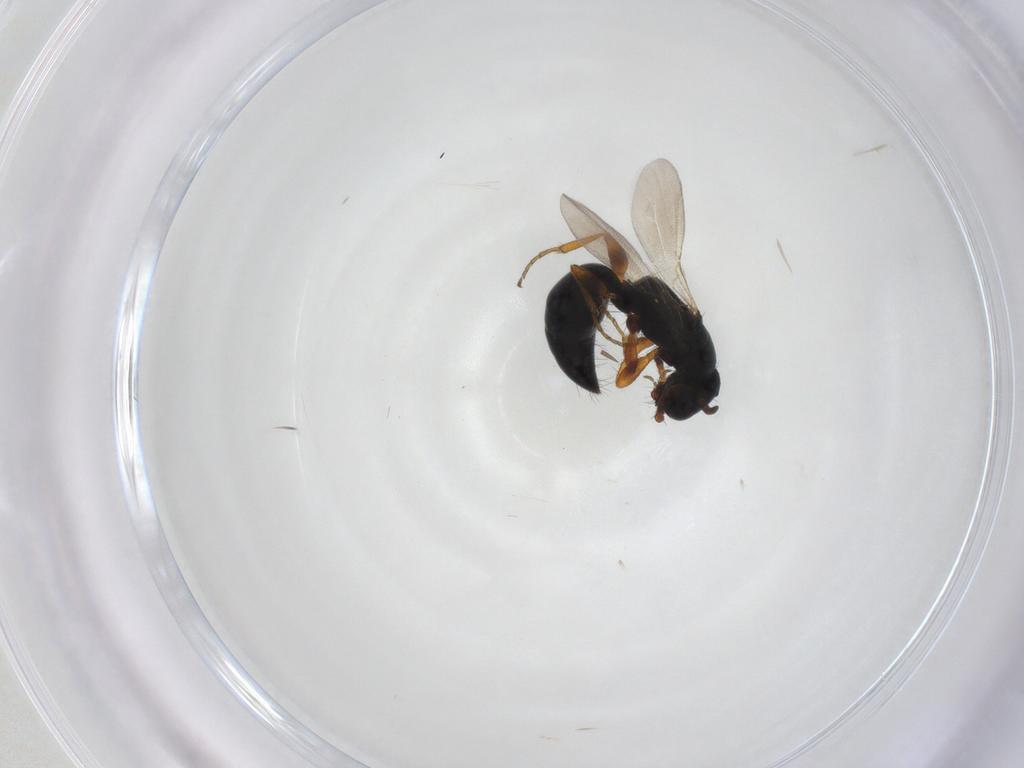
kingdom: Animalia
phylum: Arthropoda
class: Insecta
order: Hymenoptera
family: Bethylidae
